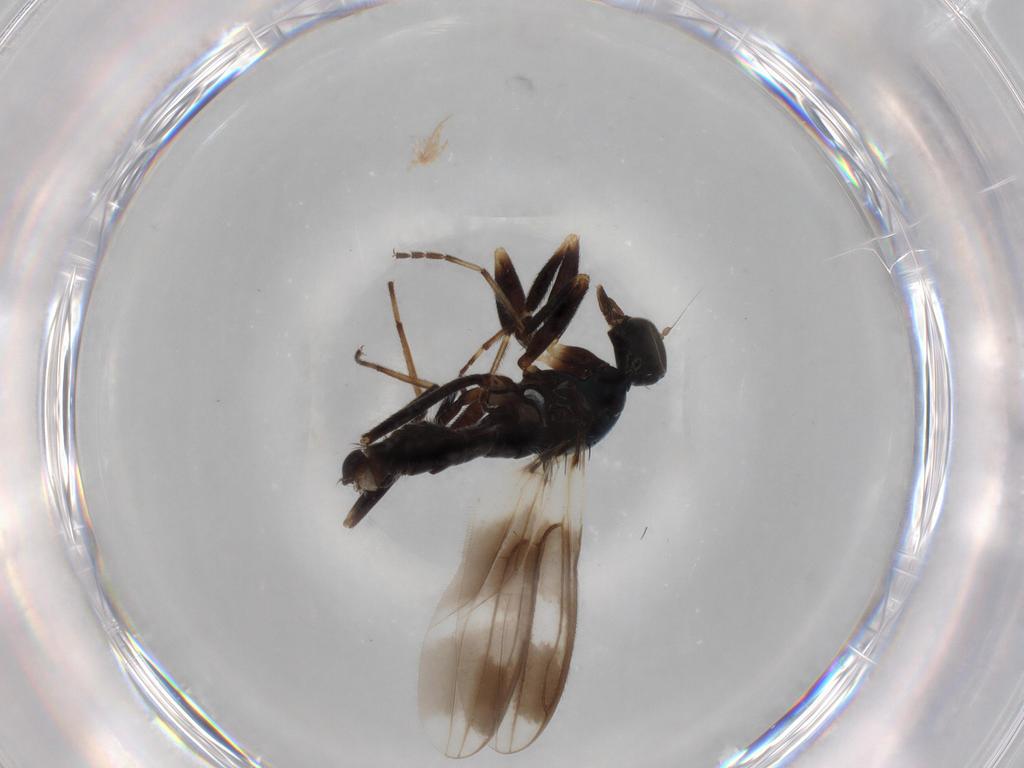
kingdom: Animalia
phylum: Arthropoda
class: Insecta
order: Diptera
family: Hybotidae
